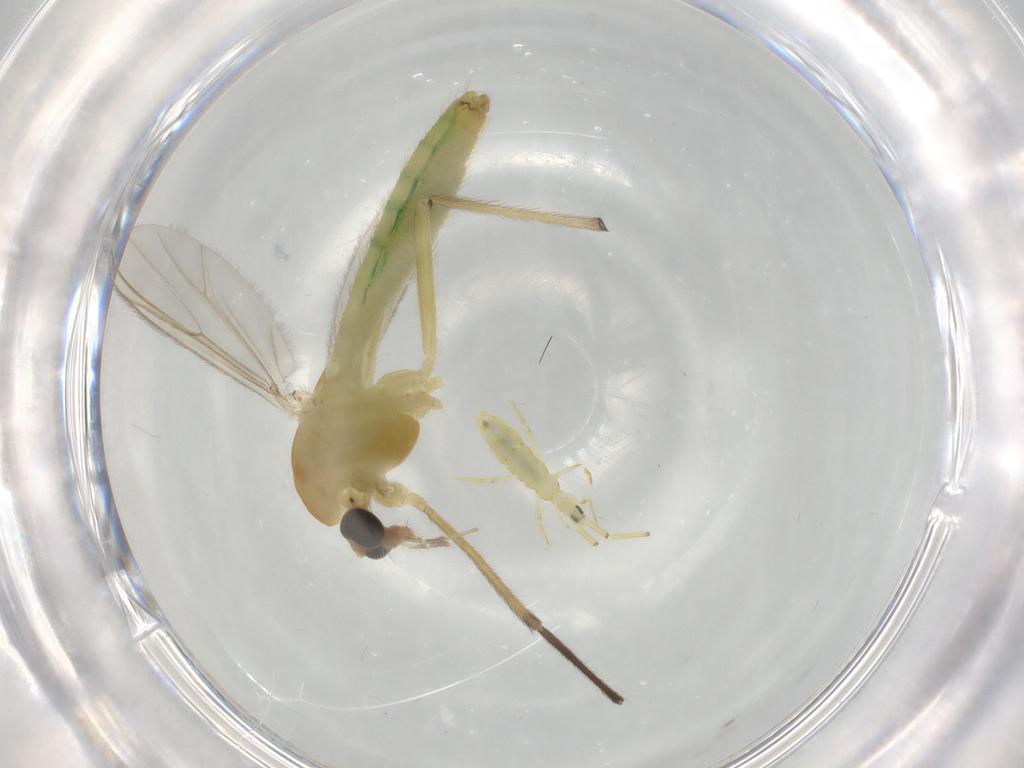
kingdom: Animalia
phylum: Arthropoda
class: Insecta
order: Diptera
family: Chironomidae
